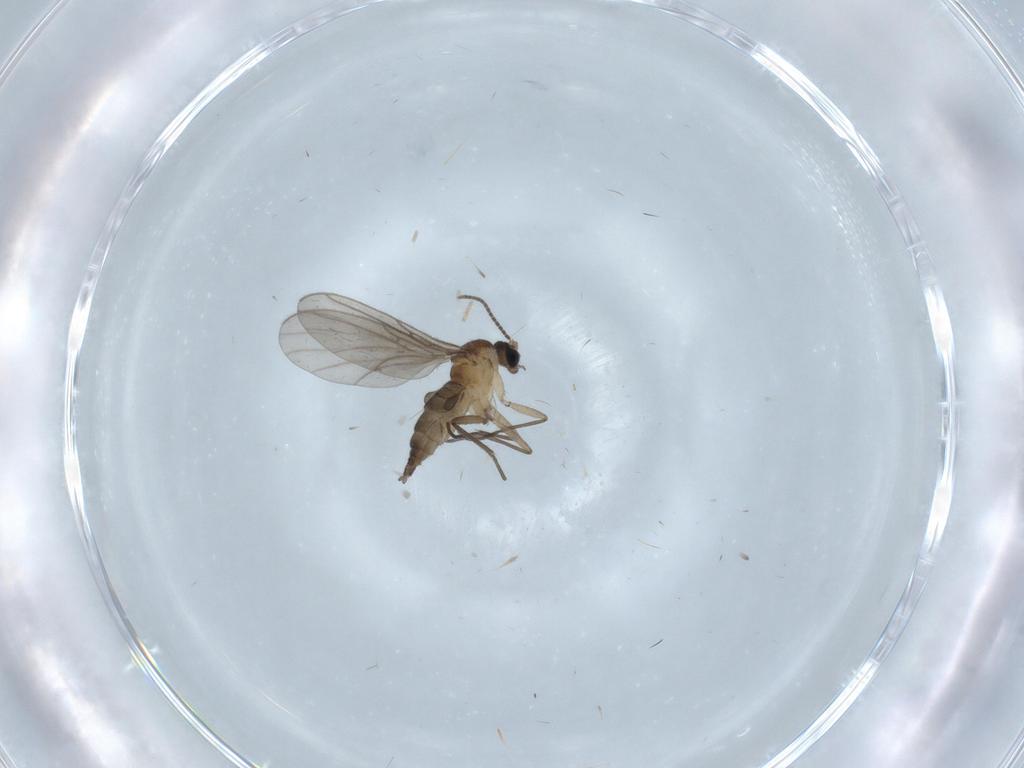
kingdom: Animalia
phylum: Arthropoda
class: Insecta
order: Diptera
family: Sciaridae
